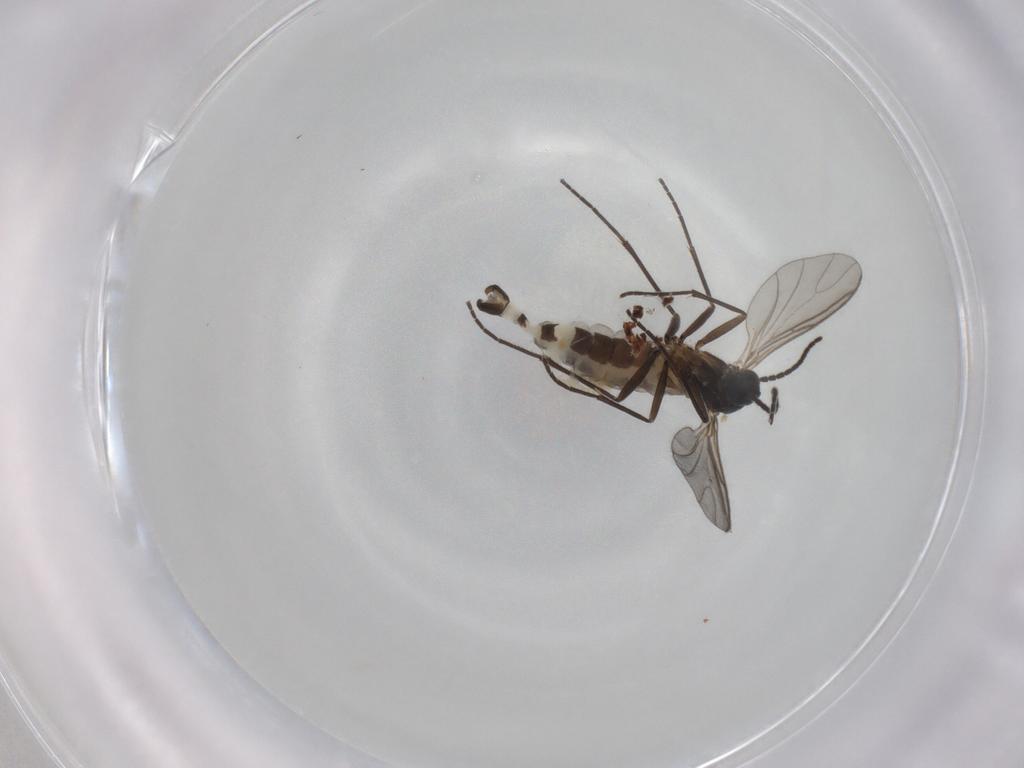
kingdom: Animalia
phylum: Arthropoda
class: Insecta
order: Diptera
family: Sciaridae
